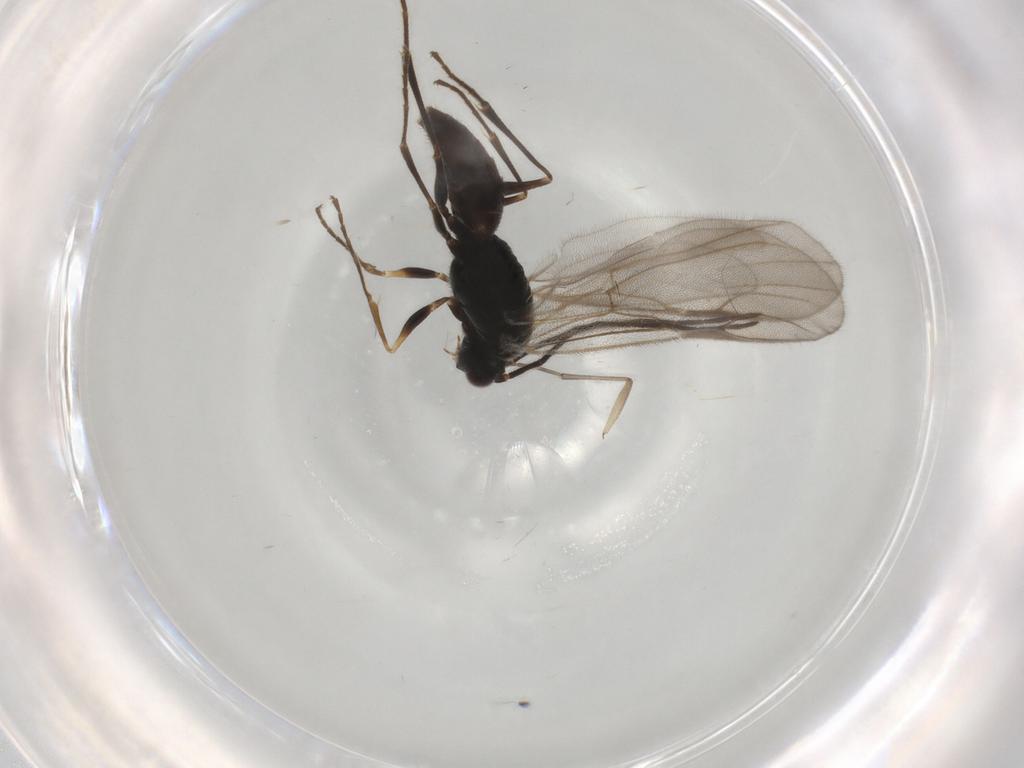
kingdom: Animalia
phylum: Arthropoda
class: Insecta
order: Hymenoptera
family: Dryinidae
